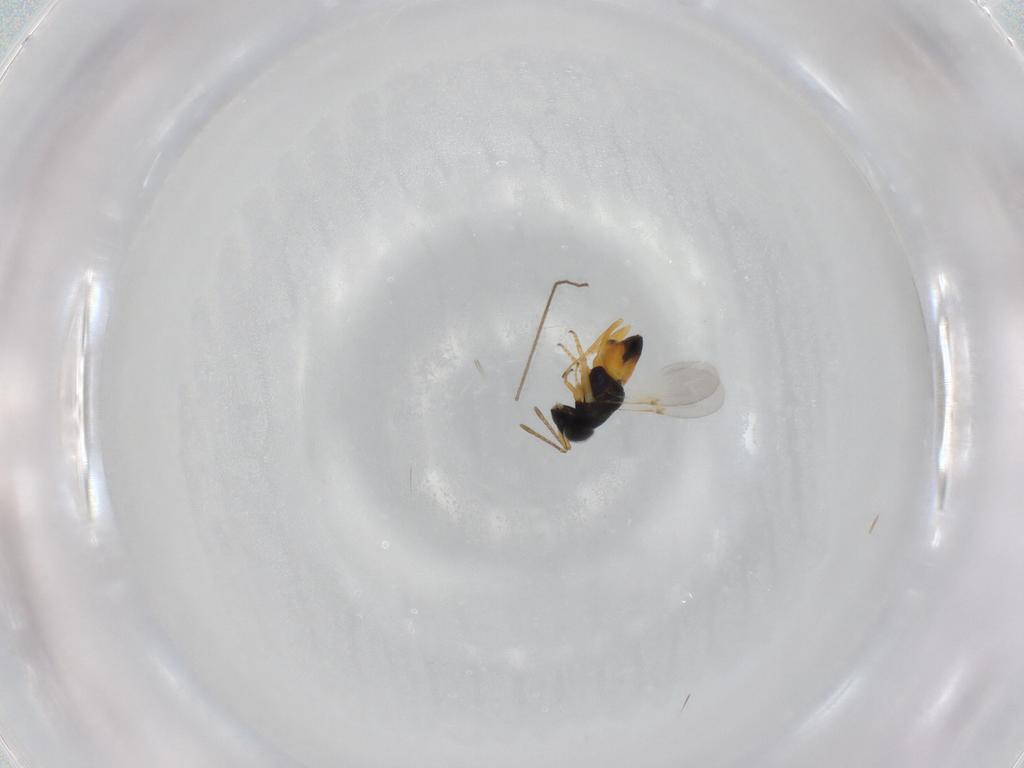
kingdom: Animalia
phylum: Arthropoda
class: Insecta
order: Hymenoptera
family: Encyrtidae
